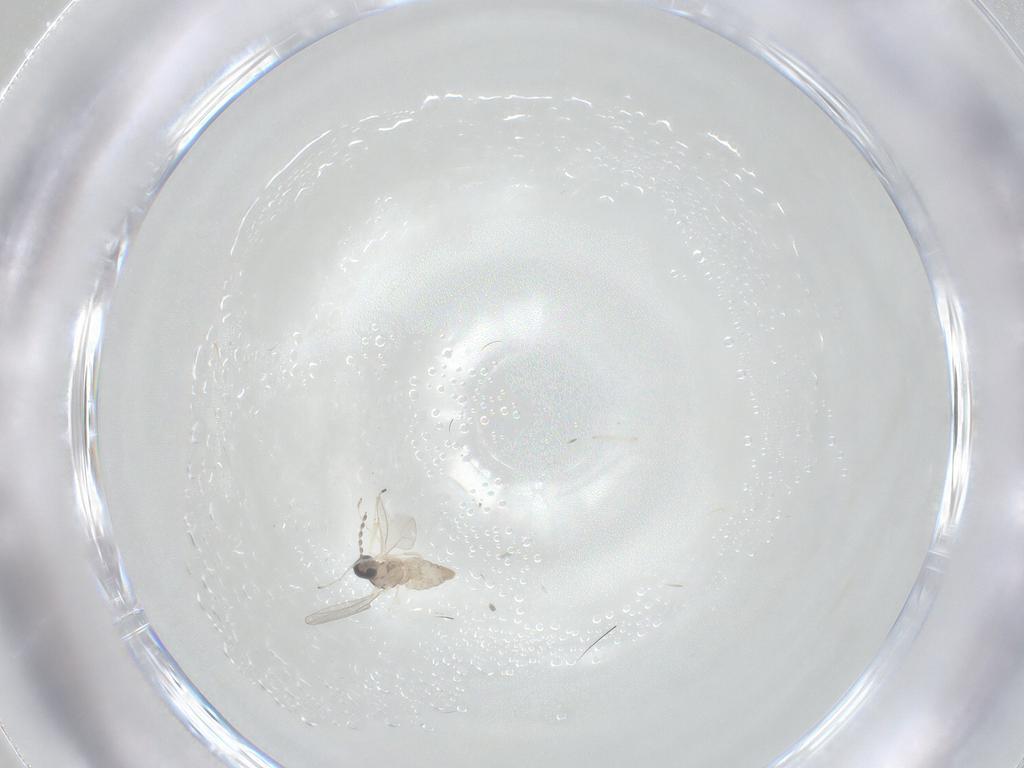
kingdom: Animalia
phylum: Arthropoda
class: Insecta
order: Diptera
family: Cecidomyiidae
